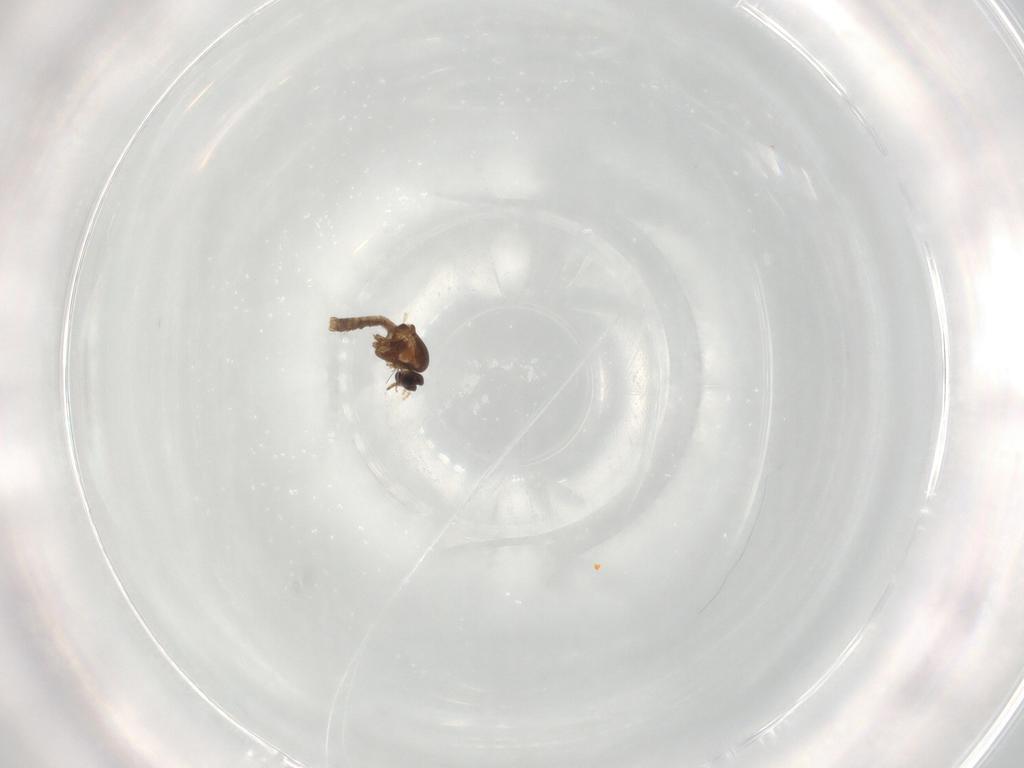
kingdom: Animalia
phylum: Arthropoda
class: Insecta
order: Diptera
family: Ceratopogonidae
